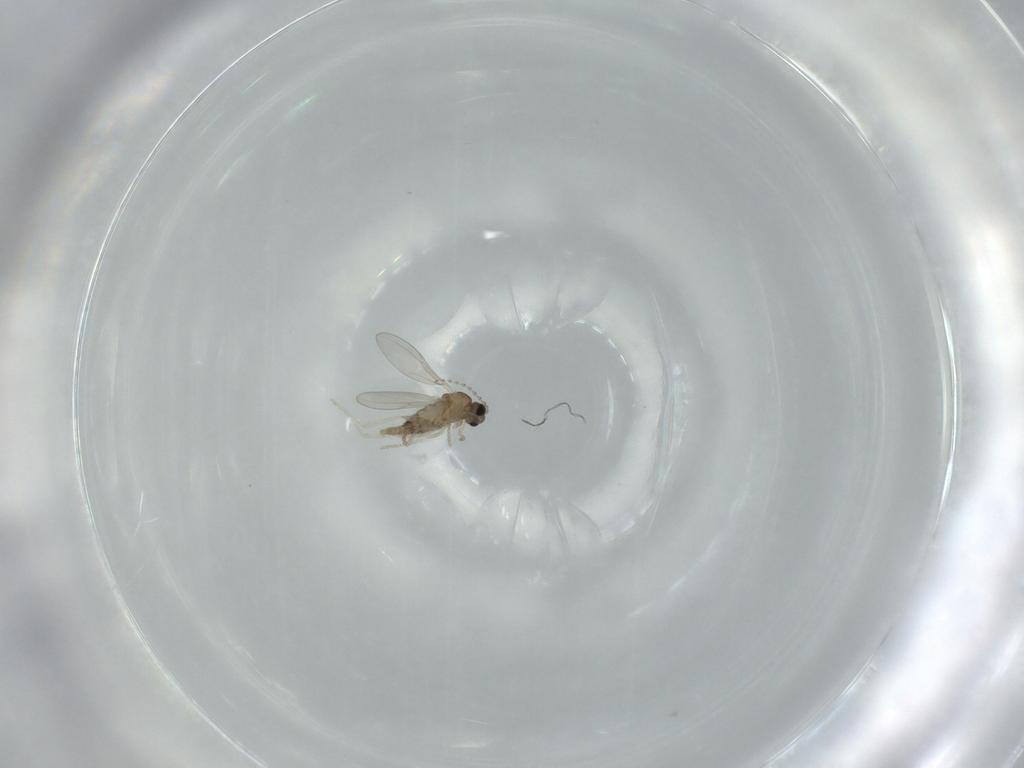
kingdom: Animalia
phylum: Arthropoda
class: Insecta
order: Diptera
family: Cecidomyiidae
